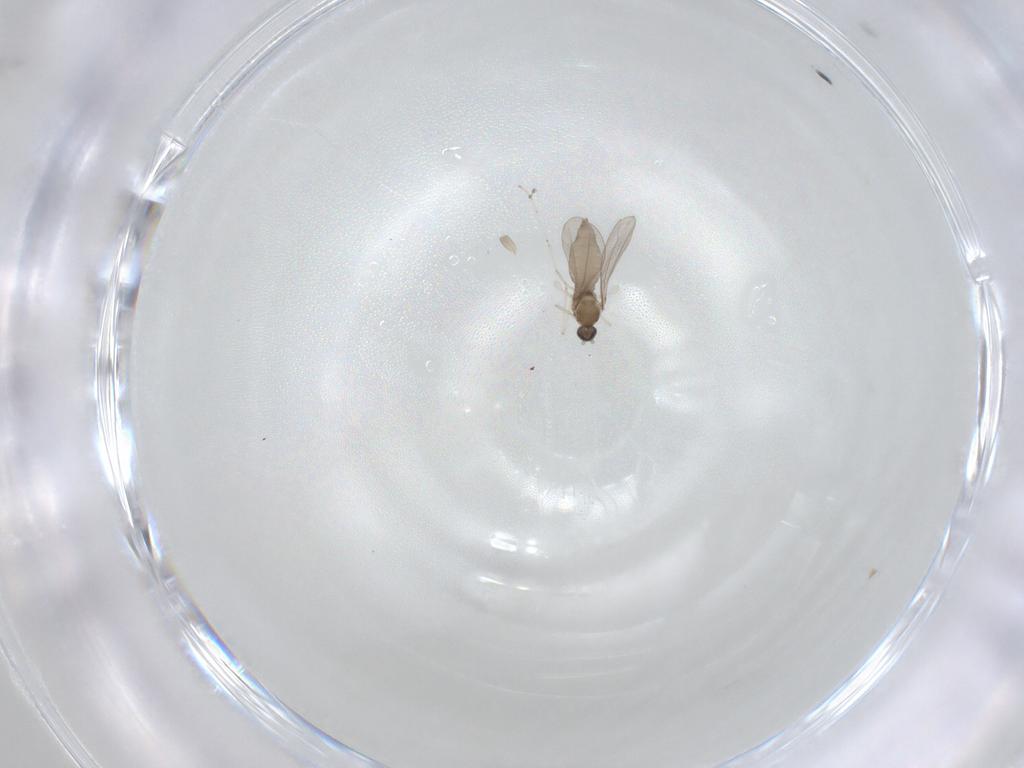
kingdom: Animalia
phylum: Arthropoda
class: Insecta
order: Diptera
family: Cecidomyiidae
